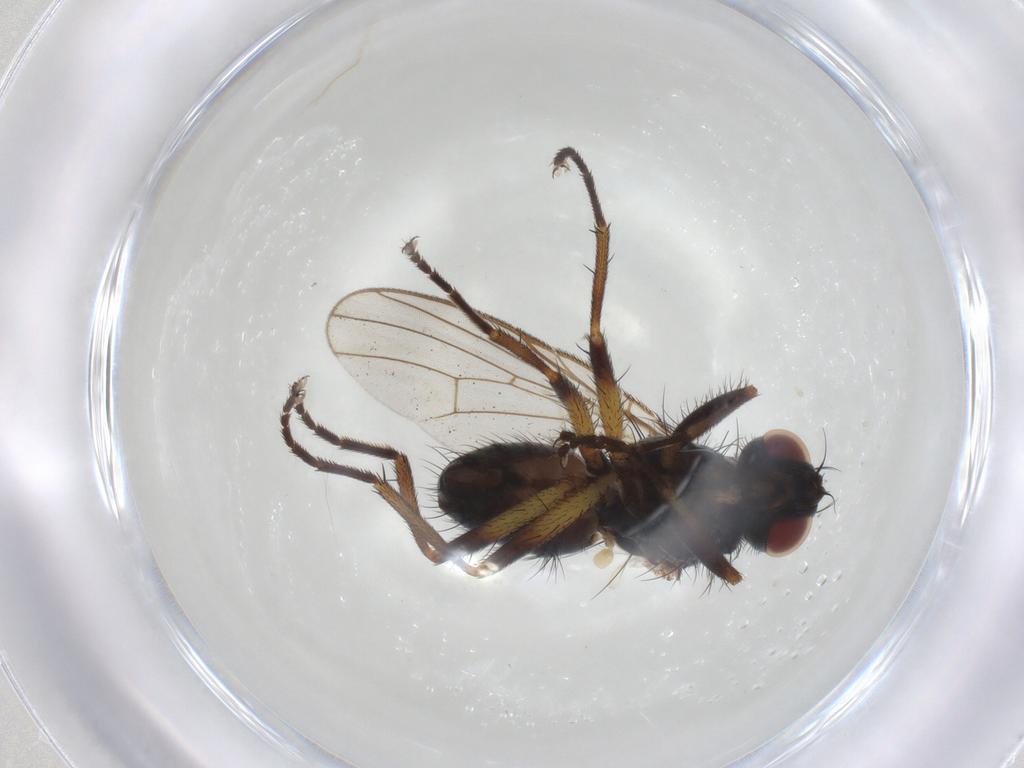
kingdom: Animalia
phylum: Arthropoda
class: Insecta
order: Diptera
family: Muscidae
